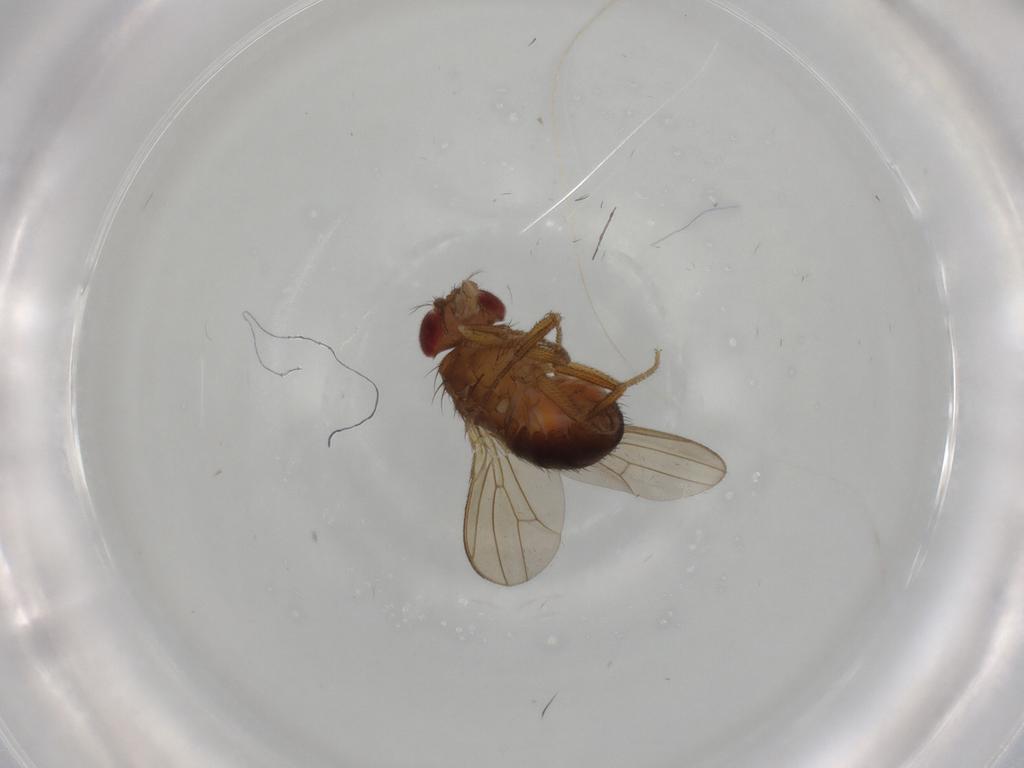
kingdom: Animalia
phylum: Arthropoda
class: Insecta
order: Diptera
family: Drosophilidae
